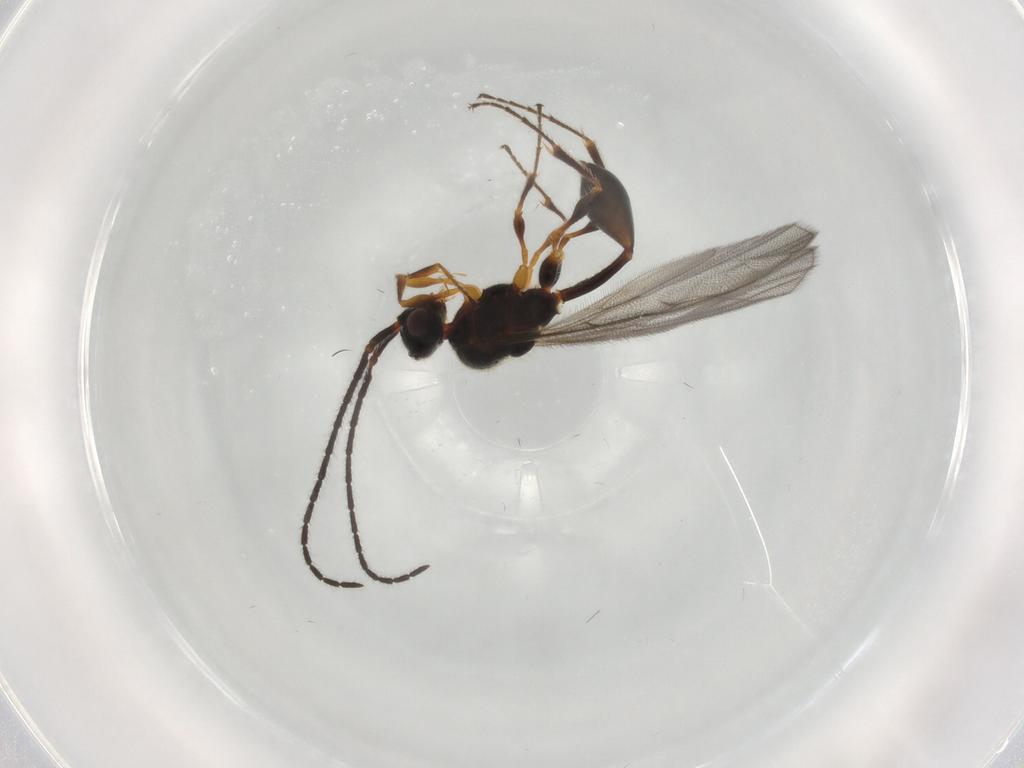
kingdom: Animalia
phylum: Arthropoda
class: Insecta
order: Hymenoptera
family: Diapriidae
